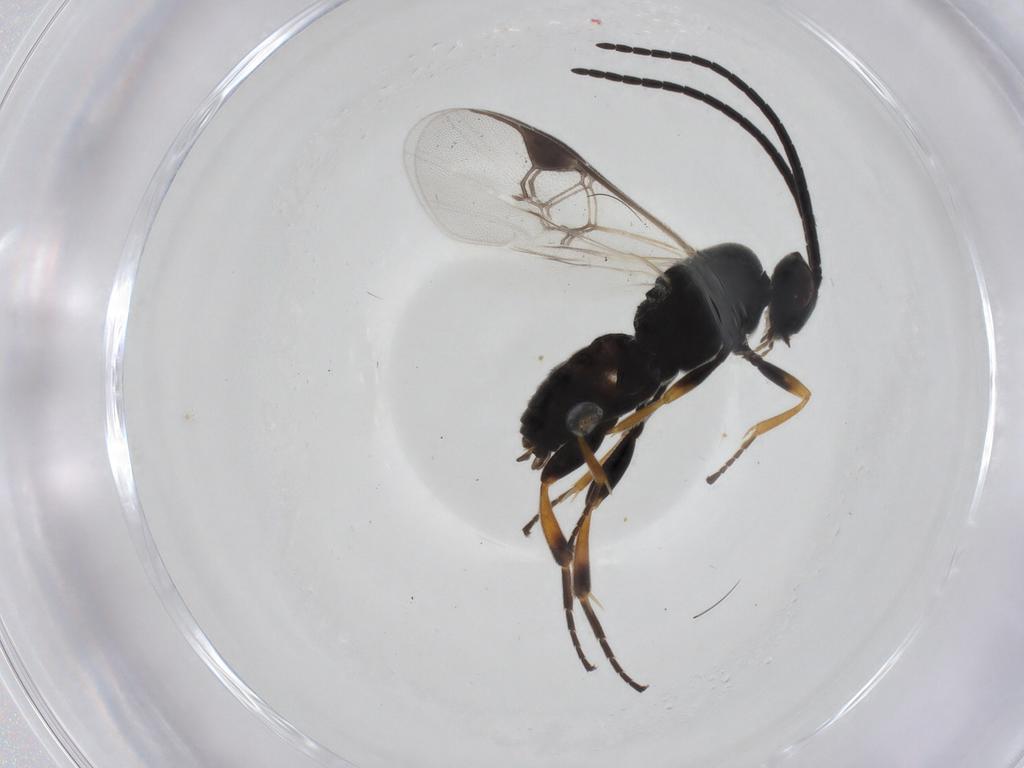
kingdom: Animalia
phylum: Arthropoda
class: Insecta
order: Hymenoptera
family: Braconidae
